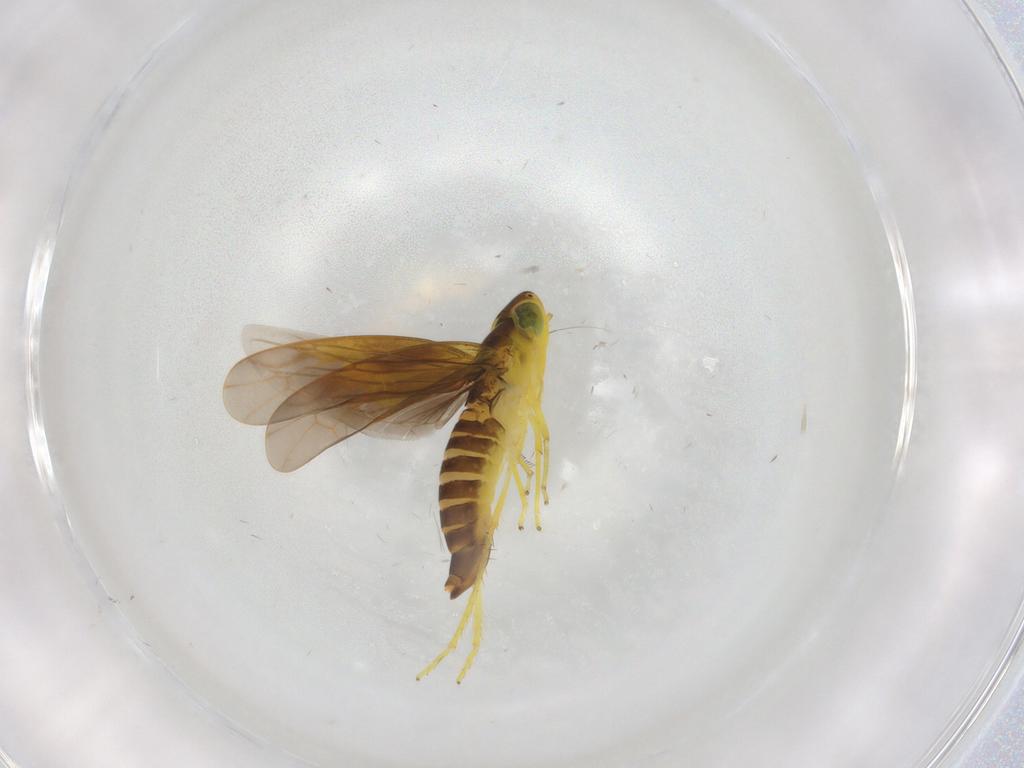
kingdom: Animalia
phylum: Arthropoda
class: Insecta
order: Hemiptera
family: Cicadellidae
